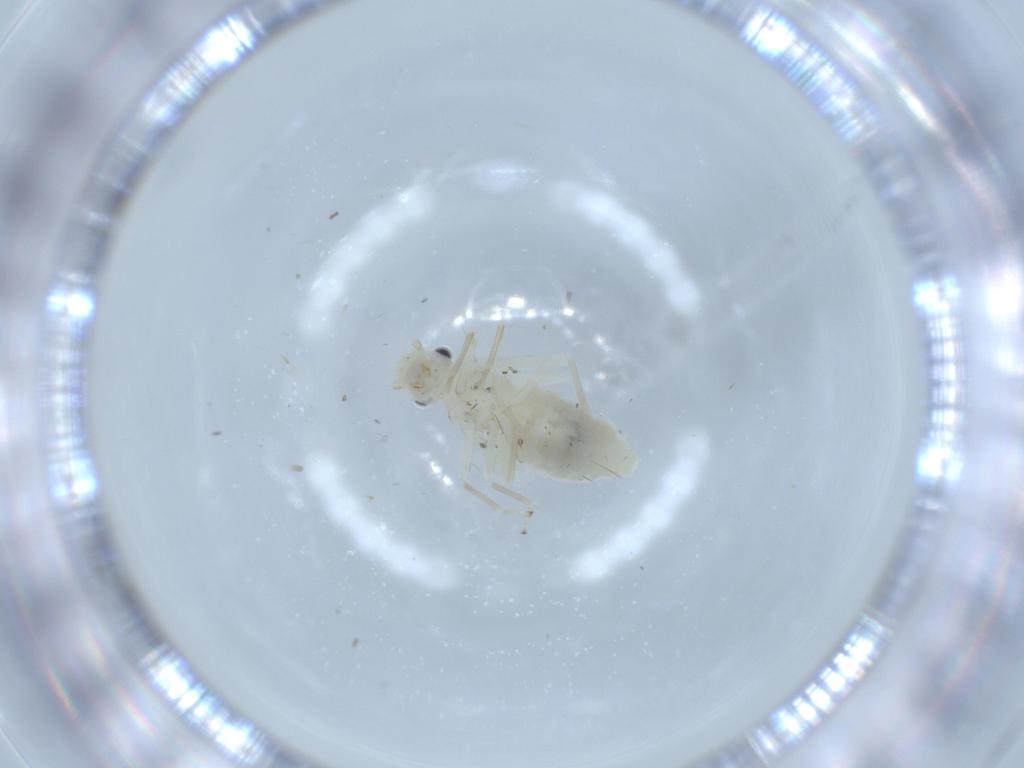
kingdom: Animalia
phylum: Arthropoda
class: Insecta
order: Psocodea
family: Caeciliusidae
